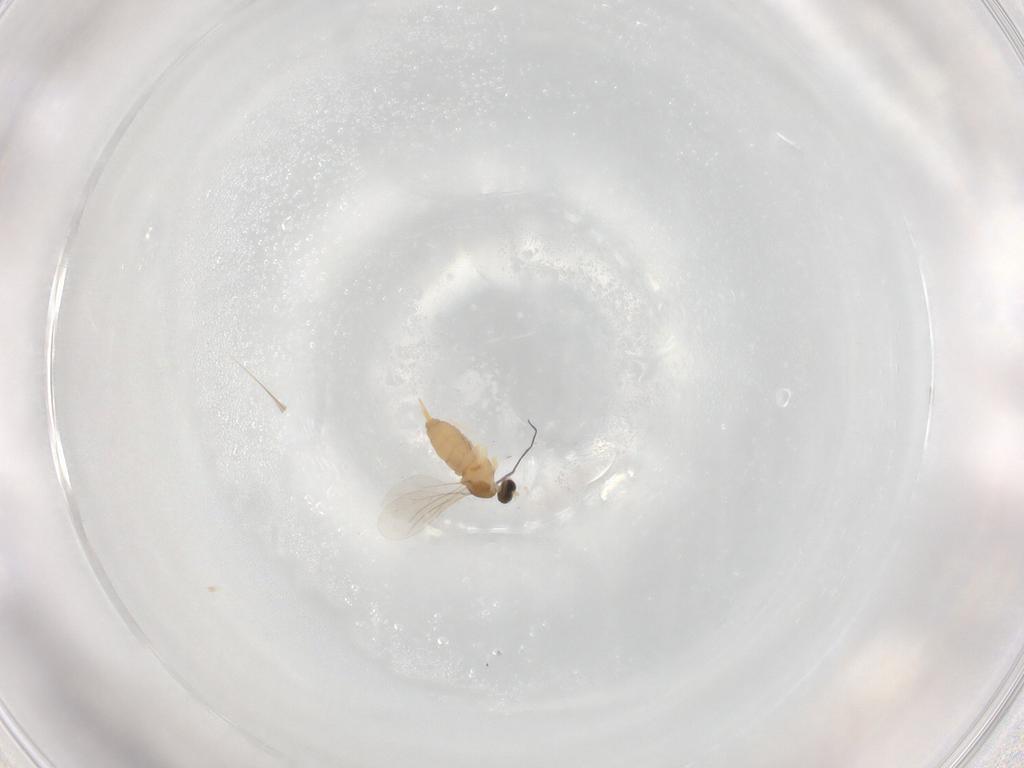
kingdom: Animalia
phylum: Arthropoda
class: Insecta
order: Diptera
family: Cecidomyiidae
